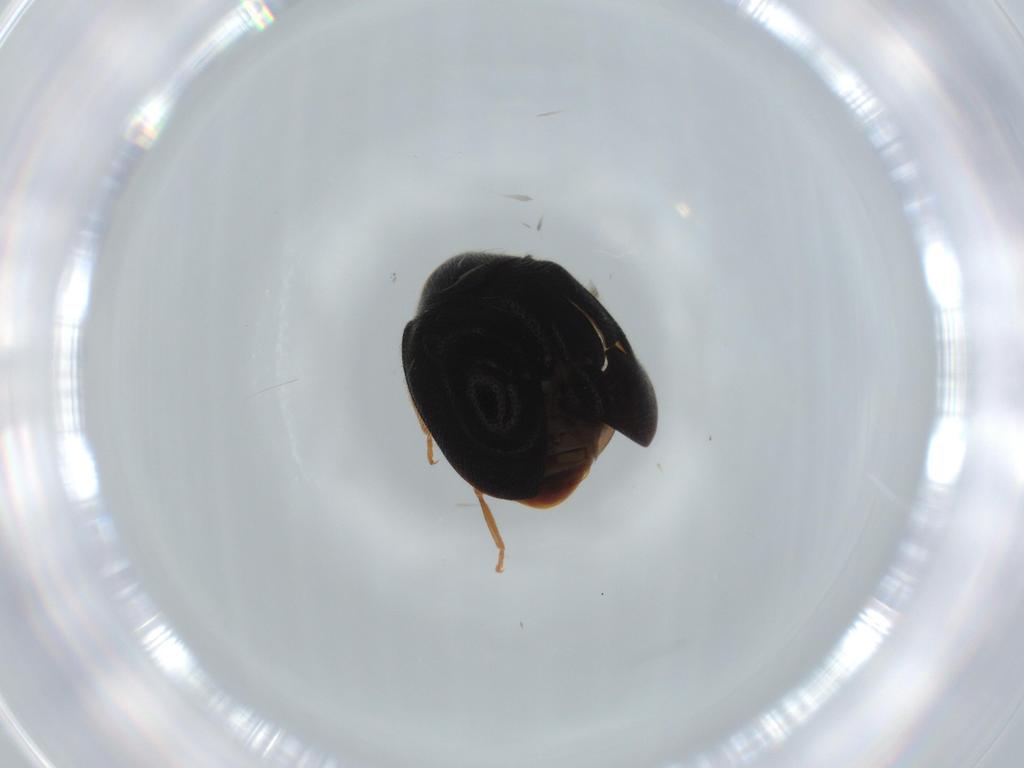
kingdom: Animalia
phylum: Arthropoda
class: Insecta
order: Coleoptera
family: Coccinellidae
